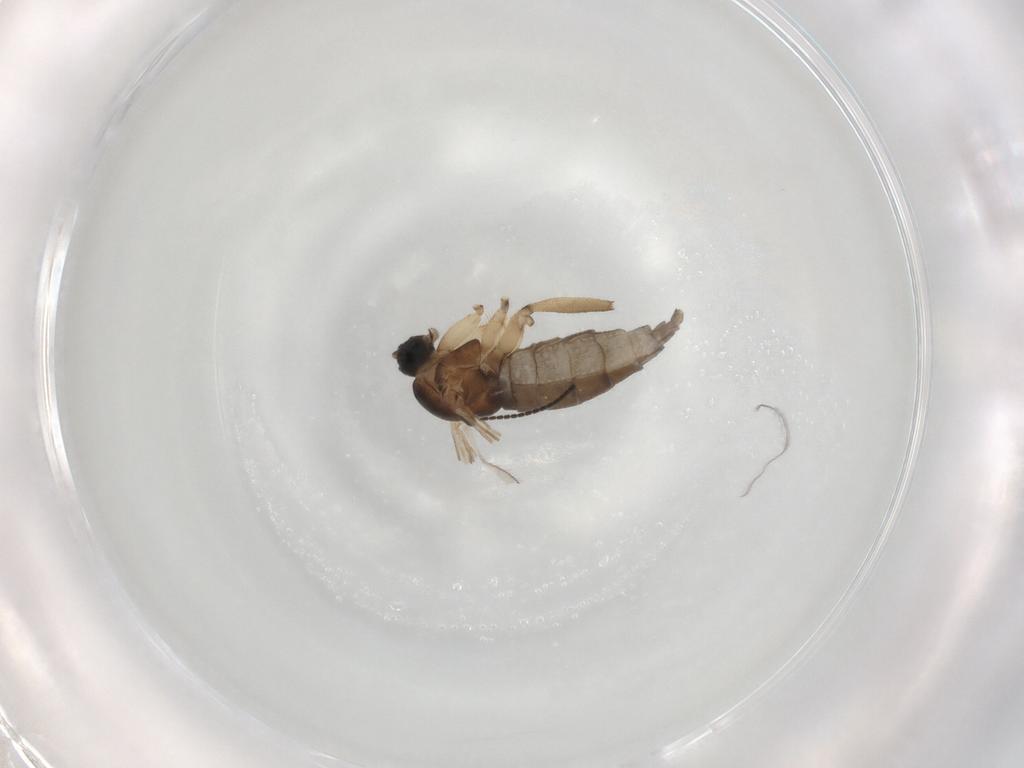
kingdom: Animalia
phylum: Arthropoda
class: Insecta
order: Diptera
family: Sciaridae
